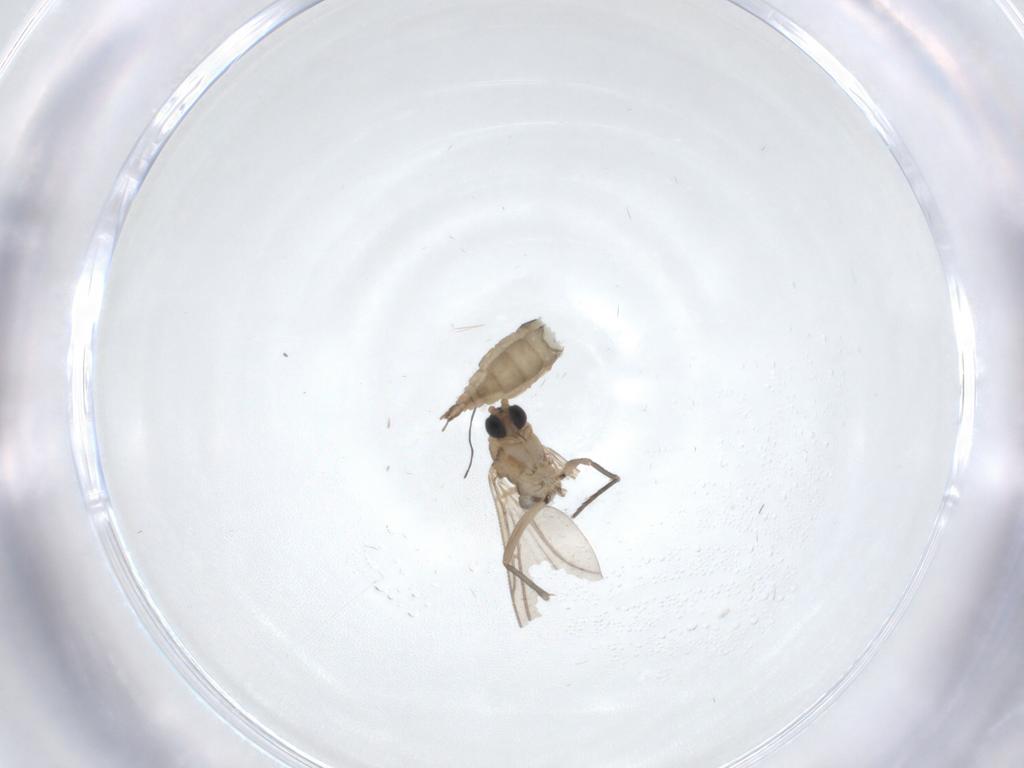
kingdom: Animalia
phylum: Arthropoda
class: Insecta
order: Diptera
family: Sciaridae
